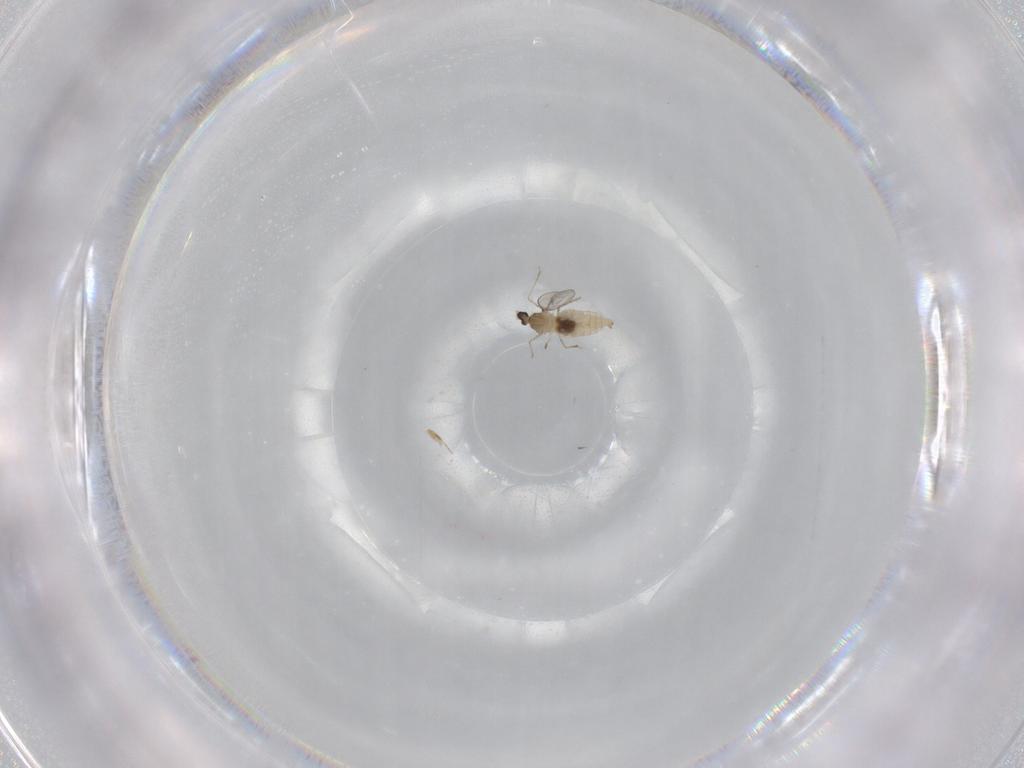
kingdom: Animalia
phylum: Arthropoda
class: Insecta
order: Diptera
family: Cecidomyiidae
